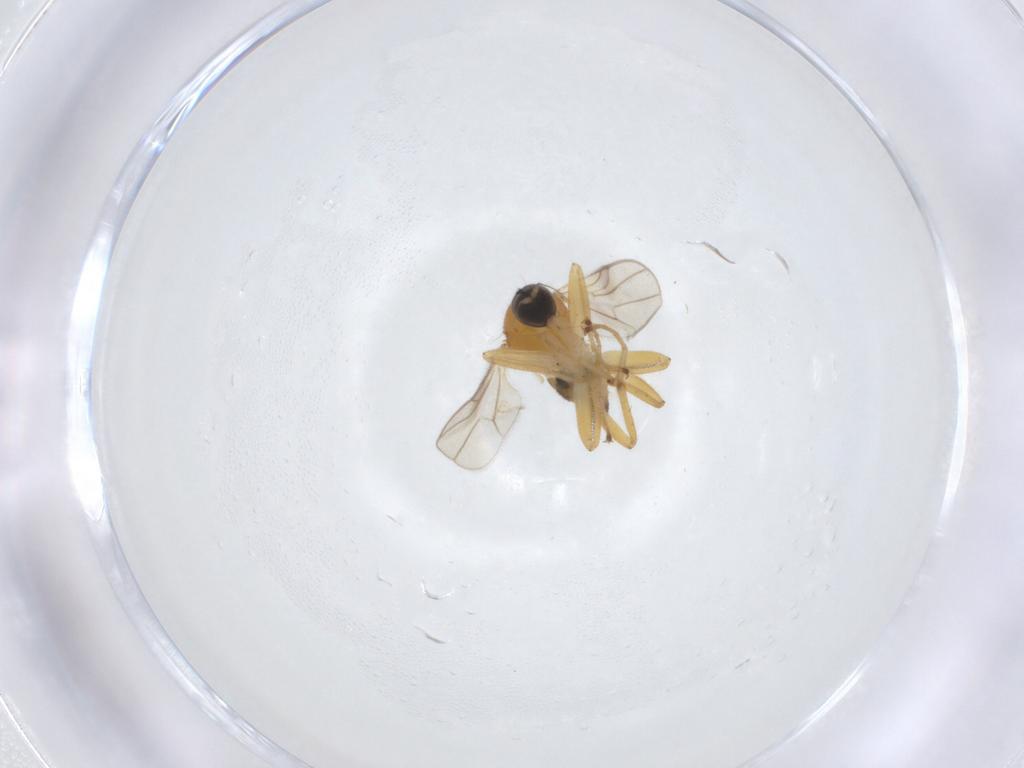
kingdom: Animalia
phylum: Arthropoda
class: Insecta
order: Diptera
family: Hybotidae
